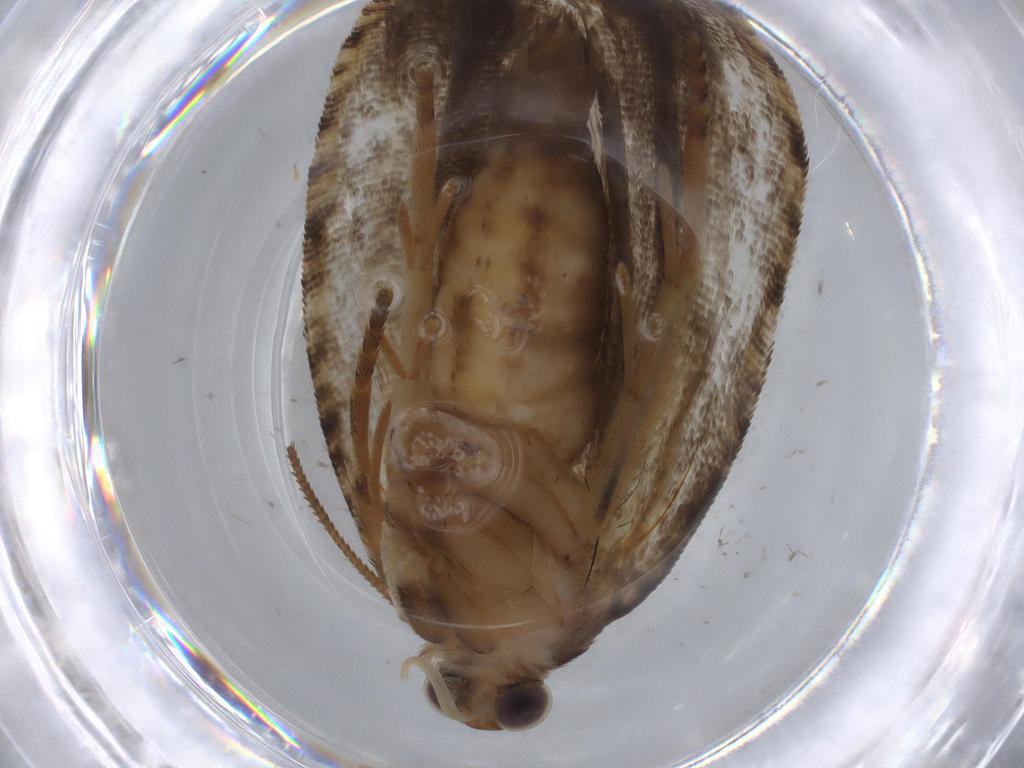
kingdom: Animalia
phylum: Arthropoda
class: Insecta
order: Lepidoptera
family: Tortricidae
